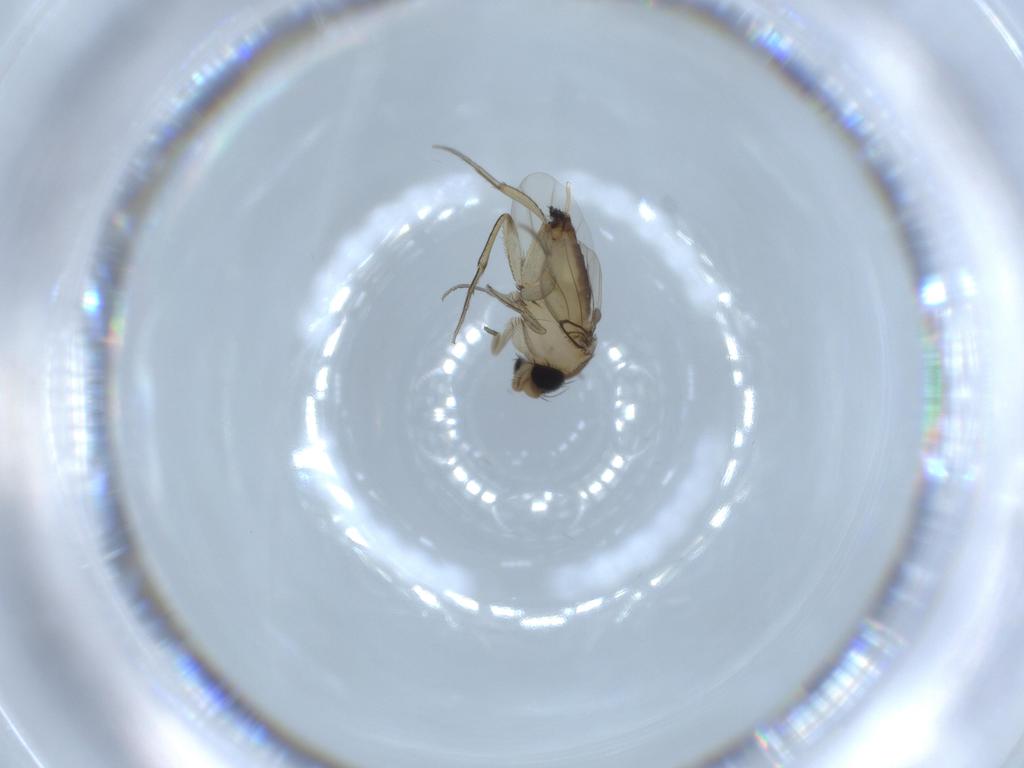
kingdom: Animalia
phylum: Arthropoda
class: Insecta
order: Diptera
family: Phoridae
